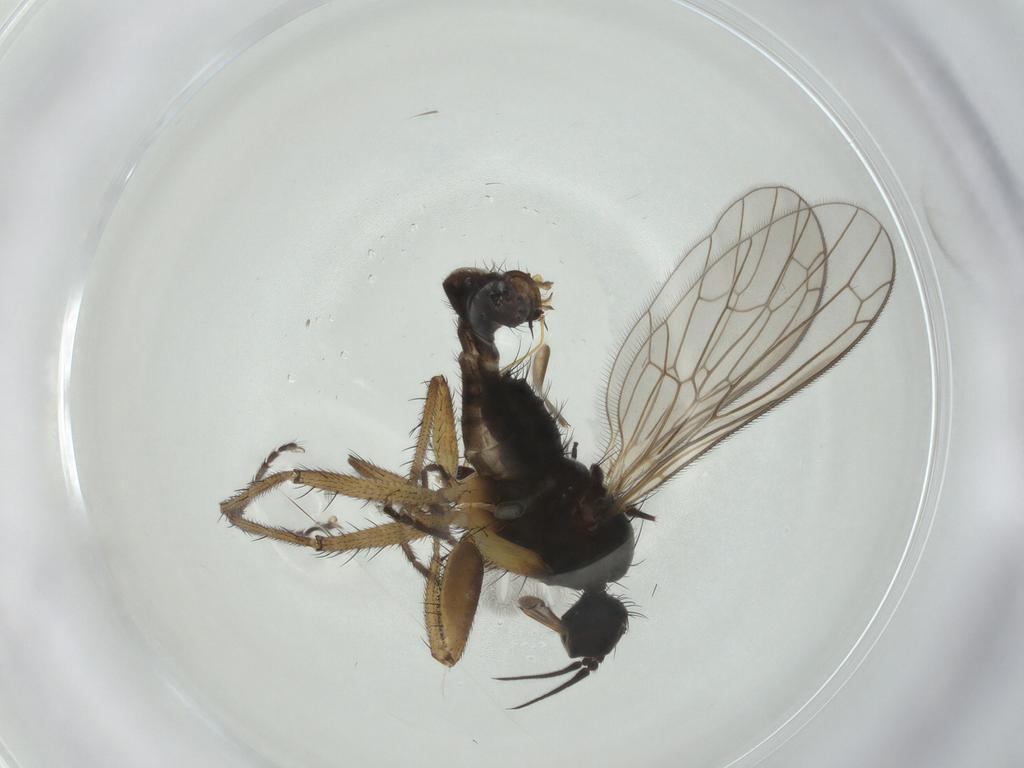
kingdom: Animalia
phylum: Arthropoda
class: Insecta
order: Diptera
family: Empididae
